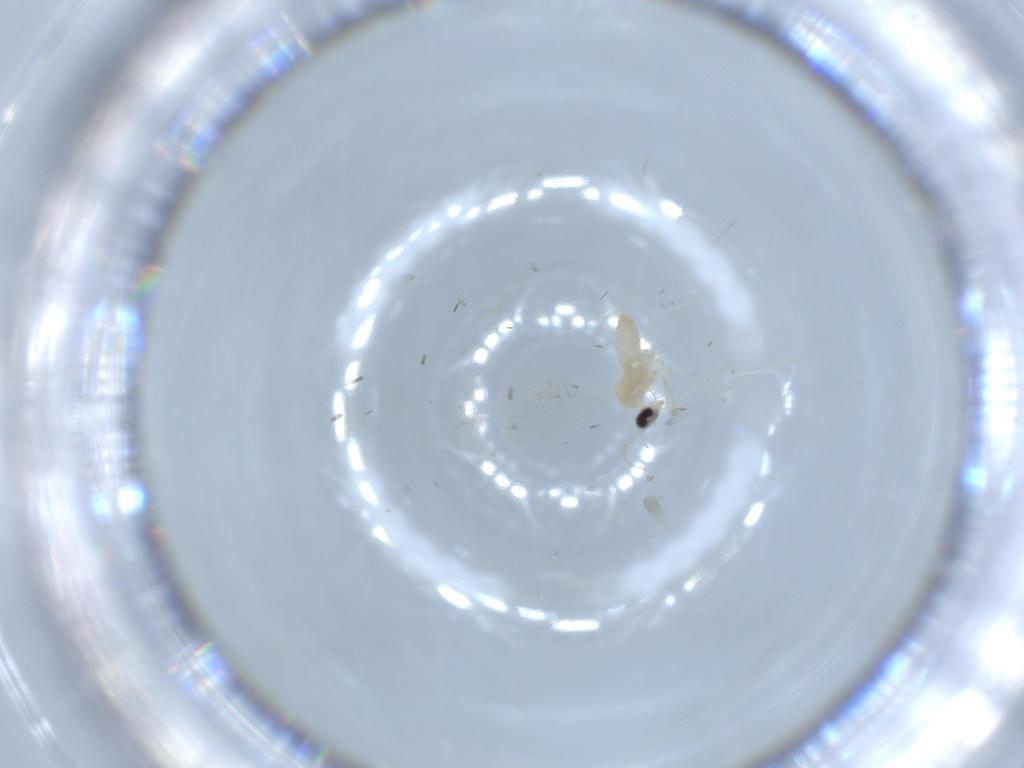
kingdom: Animalia
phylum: Arthropoda
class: Insecta
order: Diptera
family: Cecidomyiidae
